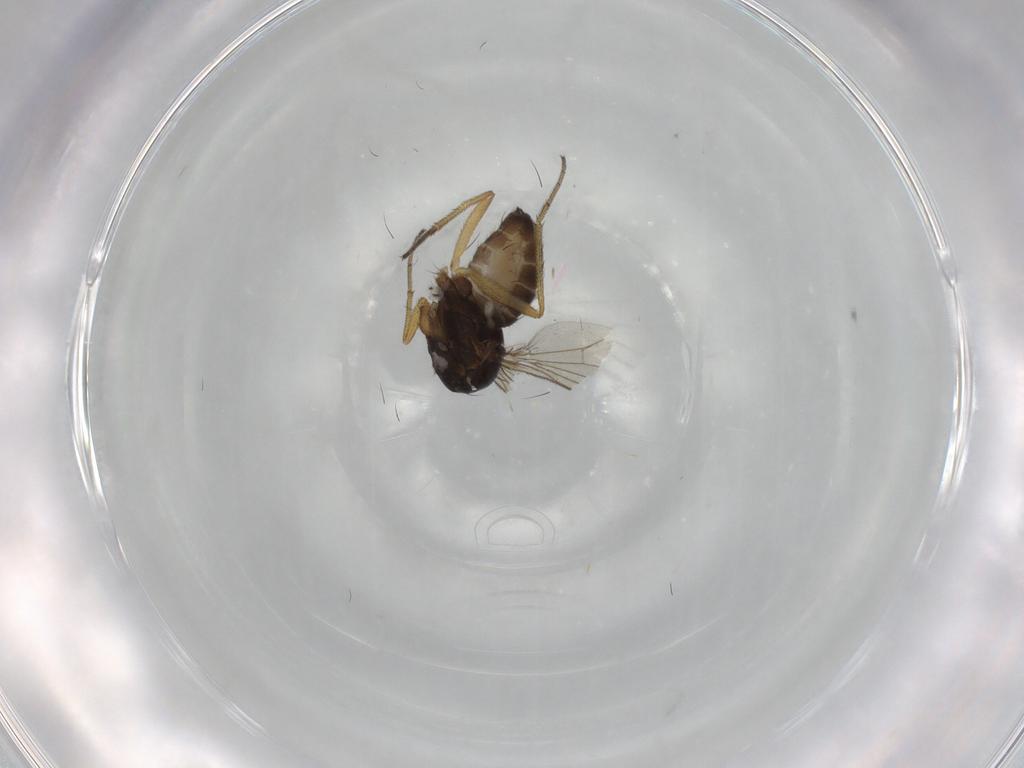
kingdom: Animalia
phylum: Arthropoda
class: Insecta
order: Diptera
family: Dolichopodidae
